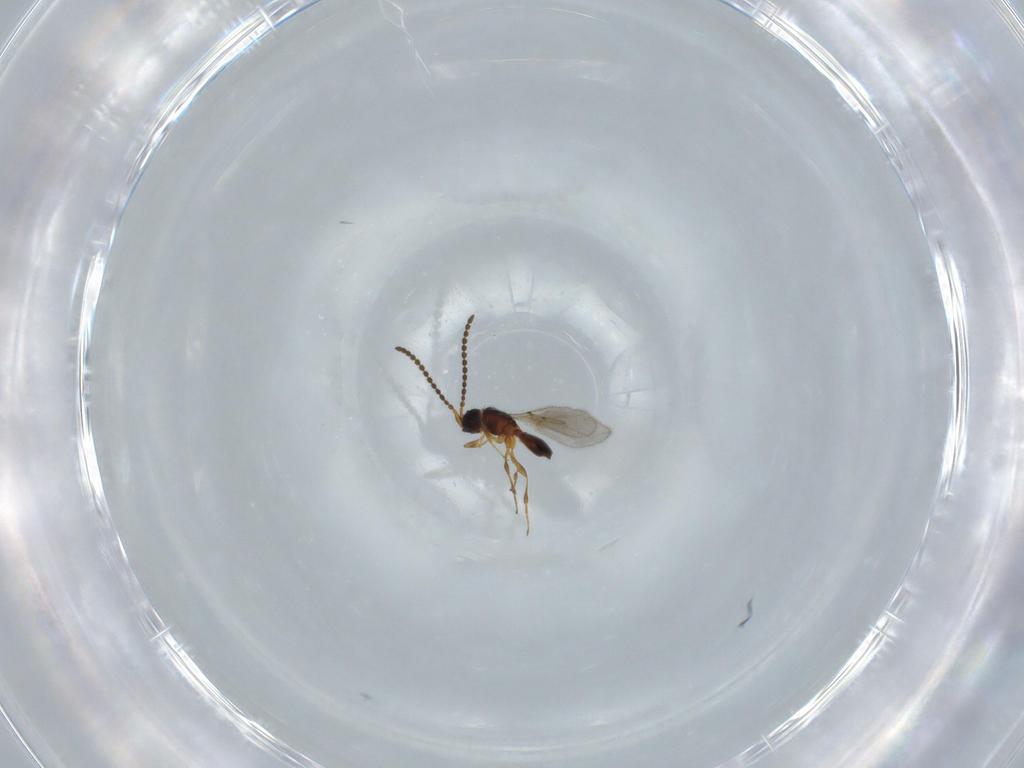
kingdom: Animalia
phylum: Arthropoda
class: Insecta
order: Hymenoptera
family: Diapriidae
